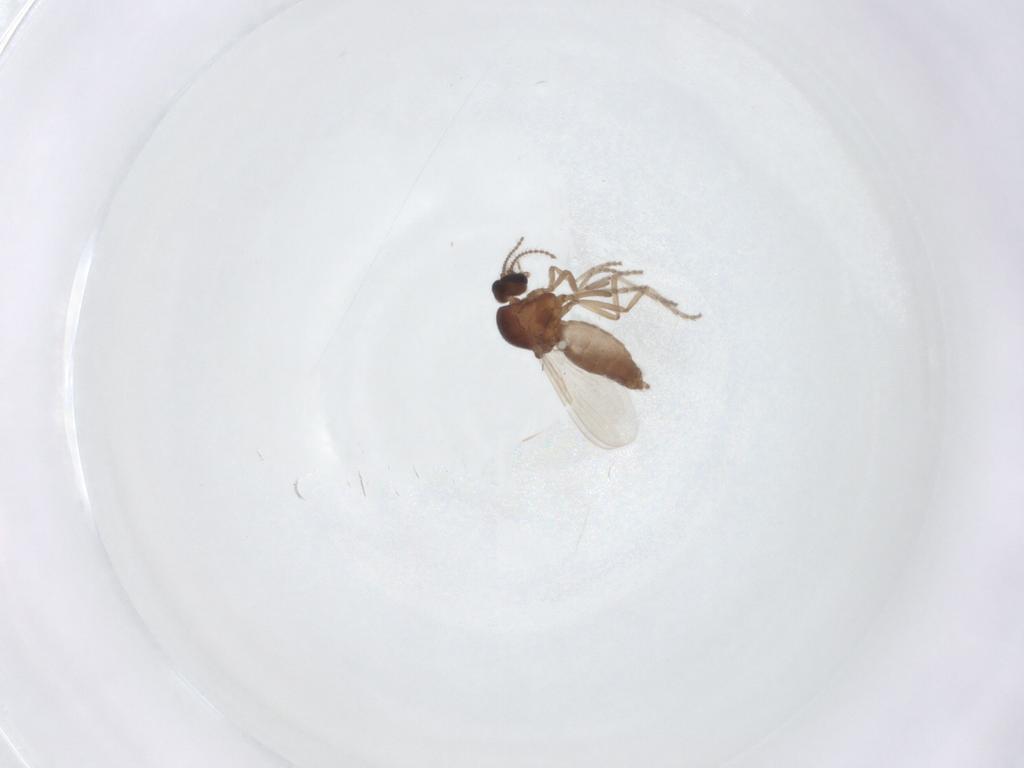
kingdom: Animalia
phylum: Arthropoda
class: Insecta
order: Diptera
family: Ceratopogonidae
